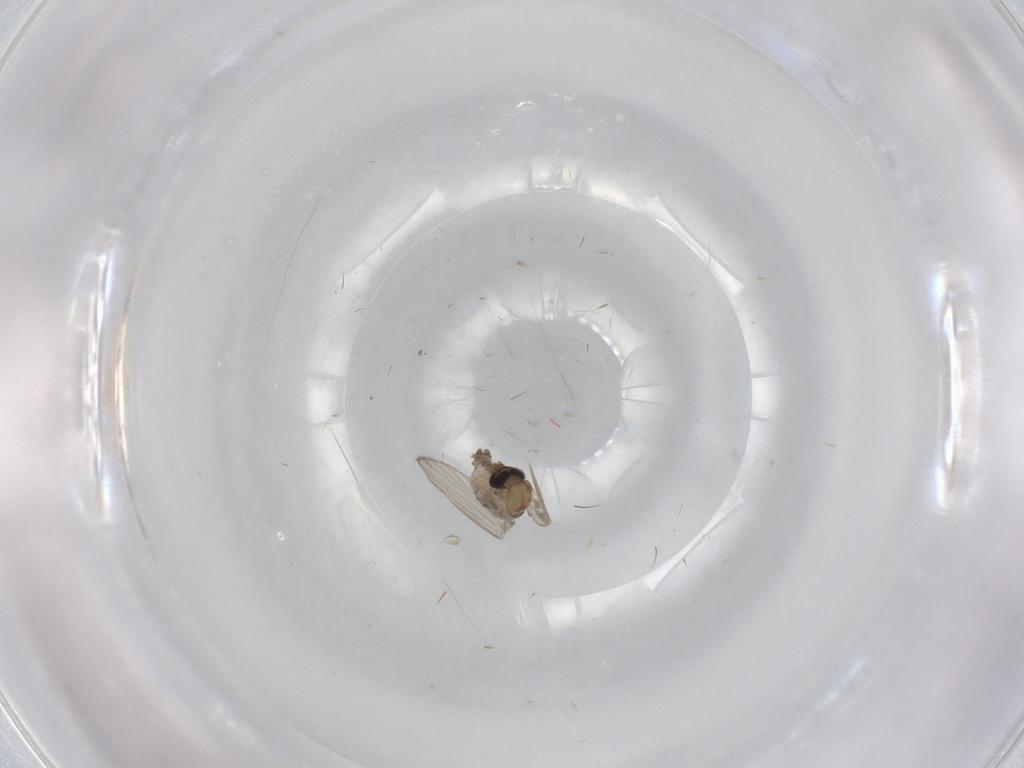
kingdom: Animalia
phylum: Arthropoda
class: Insecta
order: Diptera
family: Psychodidae
